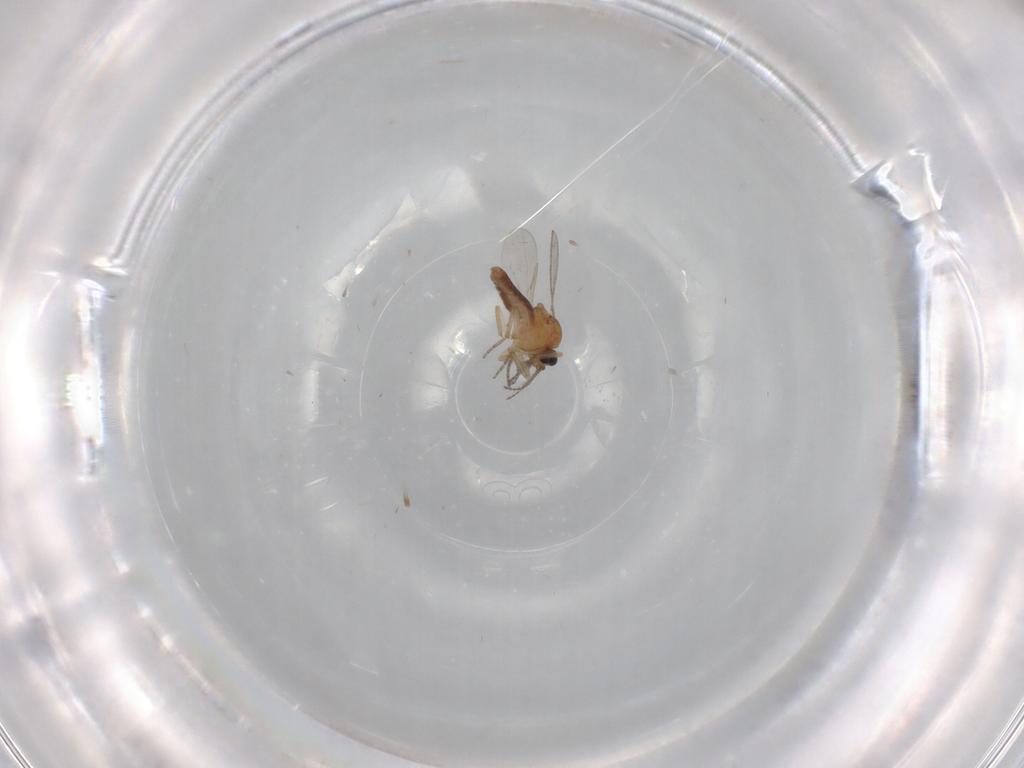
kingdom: Animalia
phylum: Arthropoda
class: Insecta
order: Diptera
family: Ceratopogonidae
